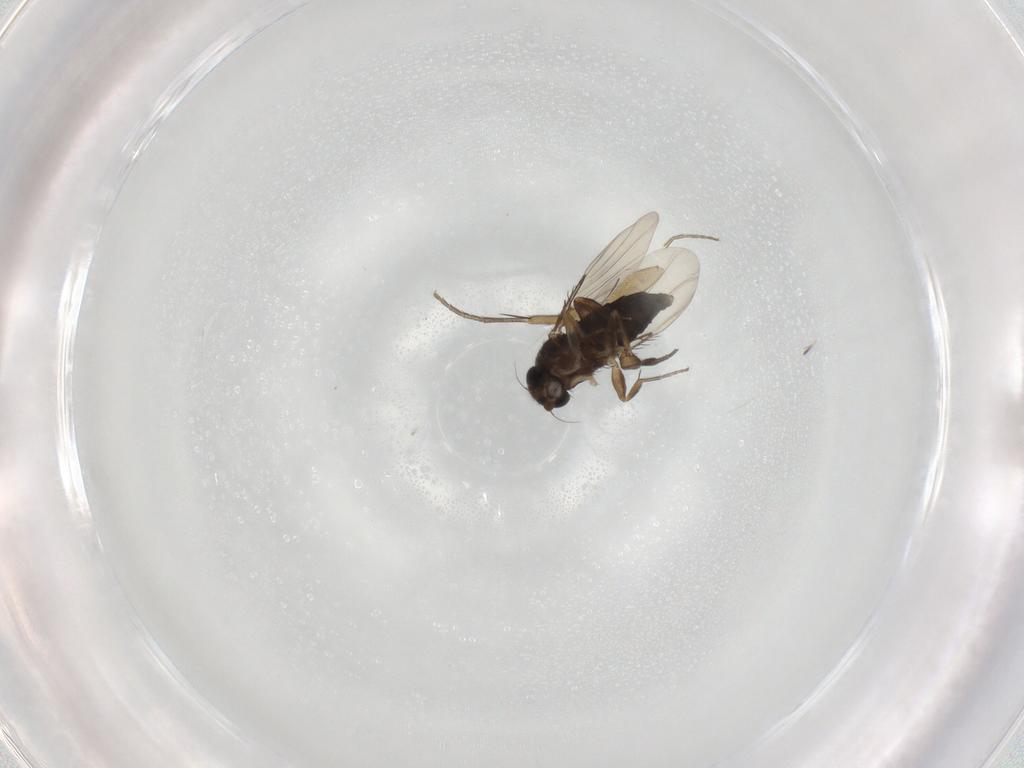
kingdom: Animalia
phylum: Arthropoda
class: Insecta
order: Diptera
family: Phoridae
